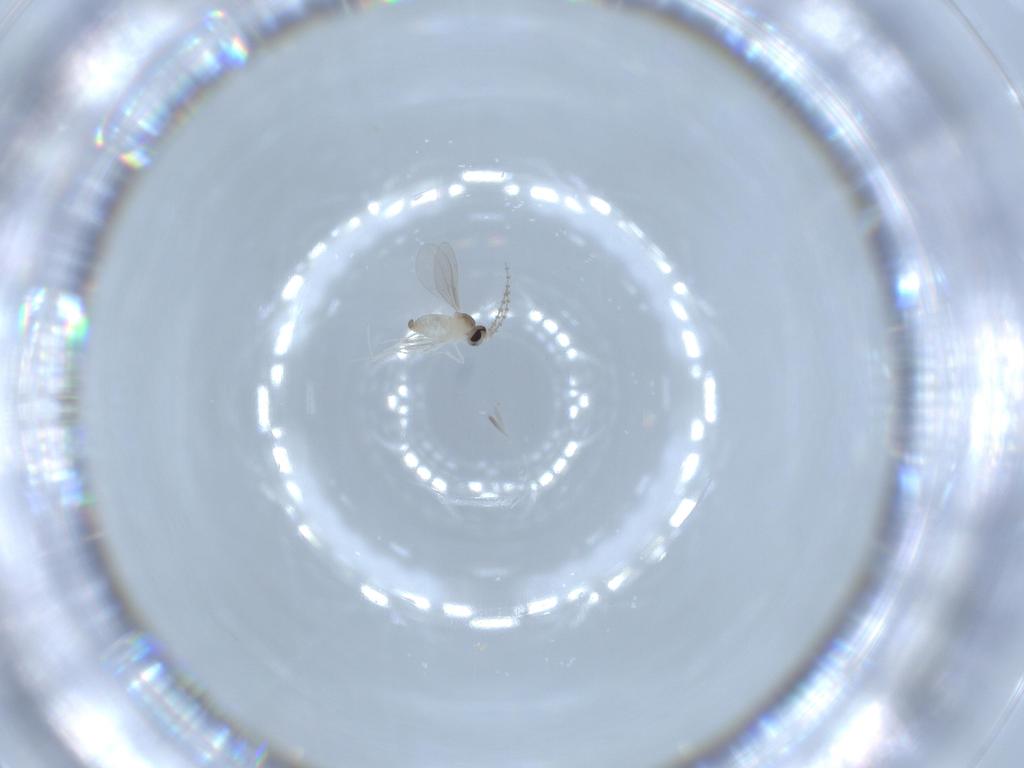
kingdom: Animalia
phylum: Arthropoda
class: Insecta
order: Diptera
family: Cecidomyiidae
